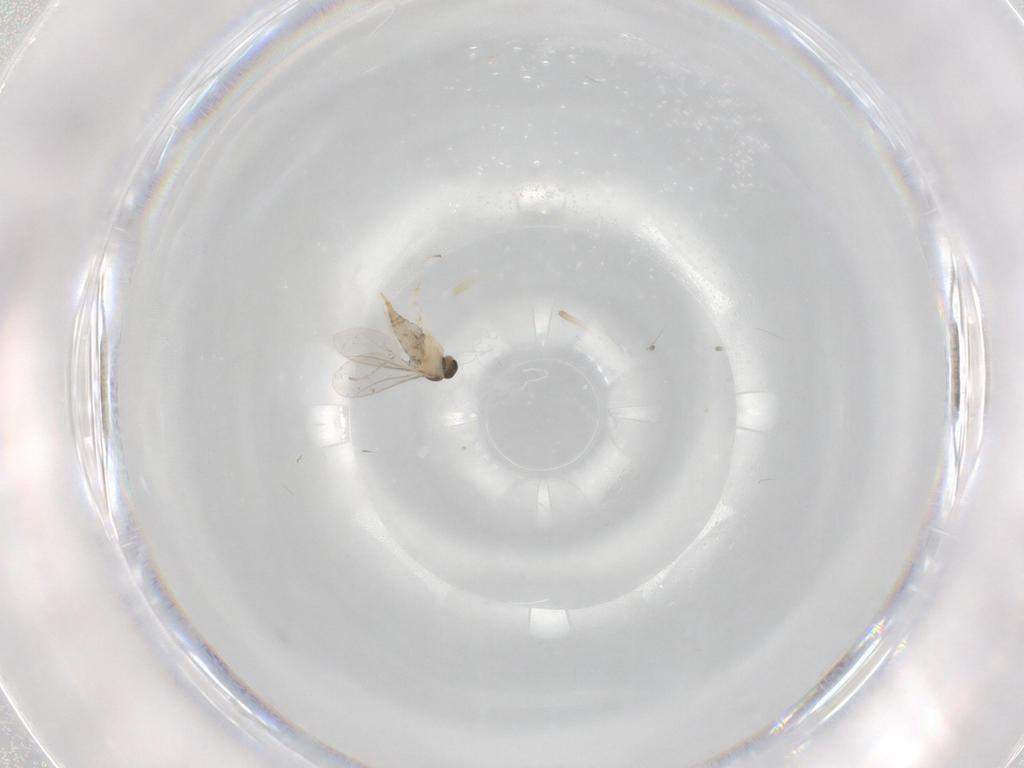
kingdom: Animalia
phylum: Arthropoda
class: Insecta
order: Diptera
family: Cecidomyiidae
